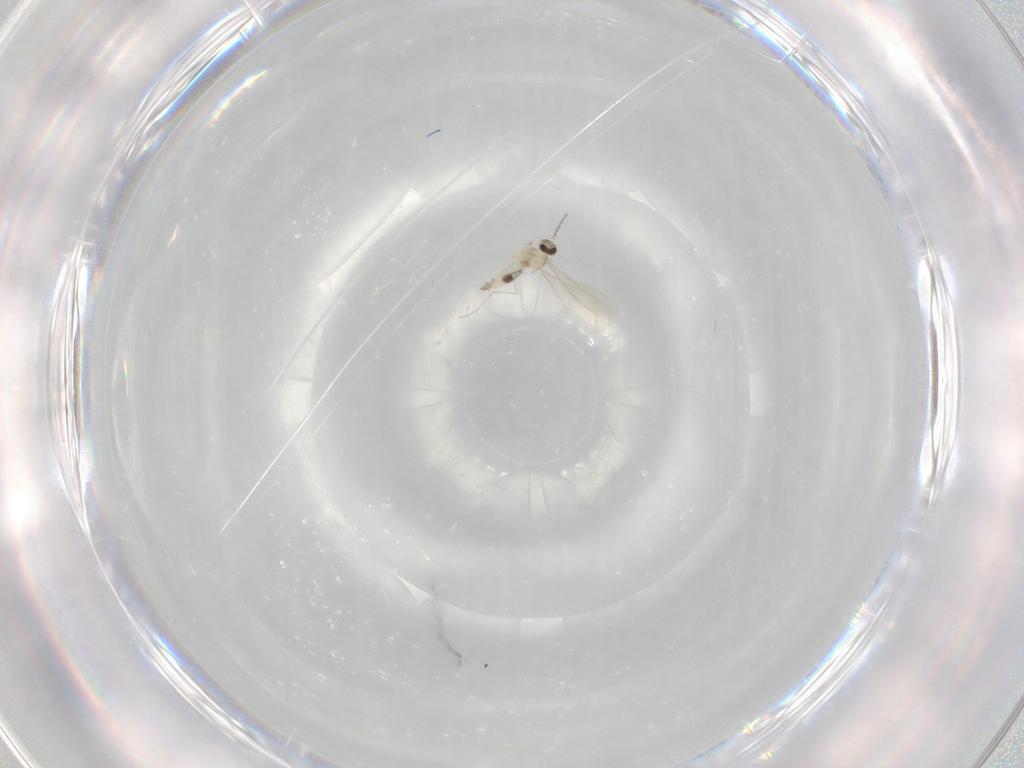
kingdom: Animalia
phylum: Arthropoda
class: Insecta
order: Diptera
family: Cecidomyiidae
